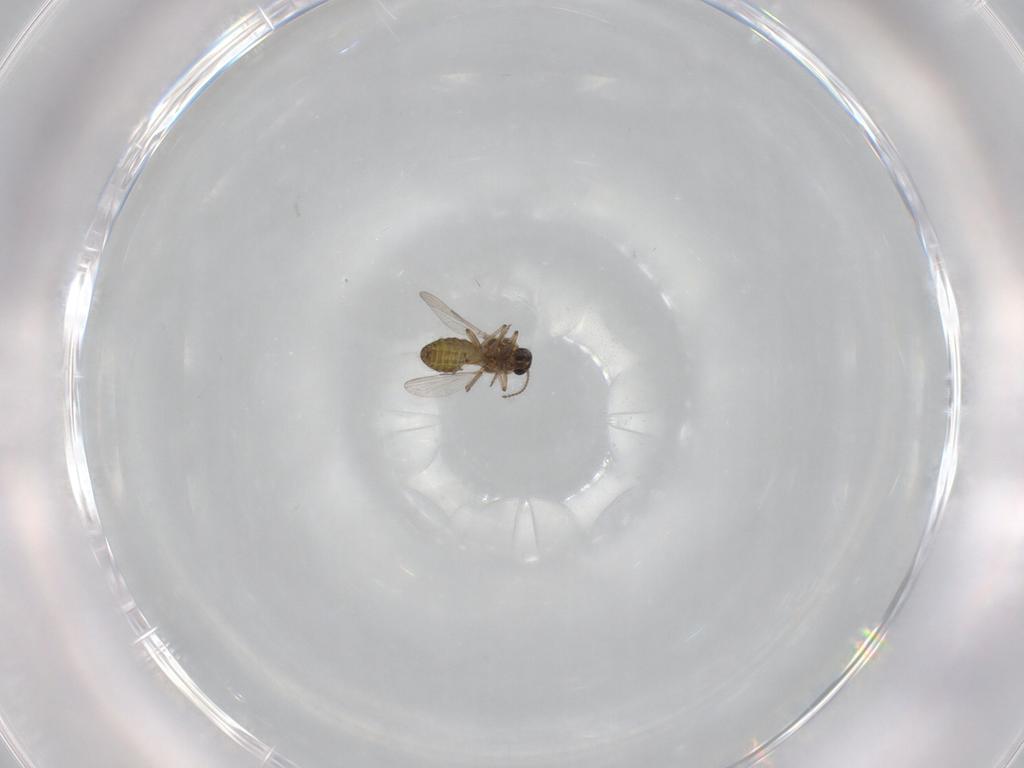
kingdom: Animalia
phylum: Arthropoda
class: Insecta
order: Diptera
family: Ceratopogonidae
